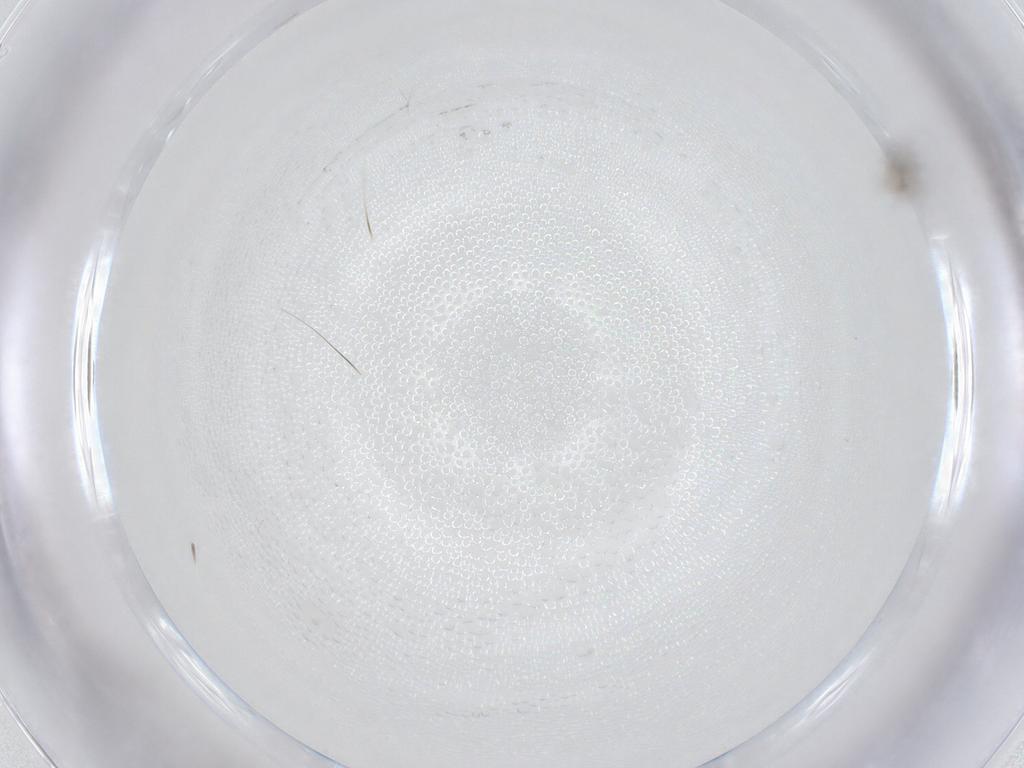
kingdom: Animalia
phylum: Arthropoda
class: Insecta
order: Diptera
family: Cecidomyiidae
